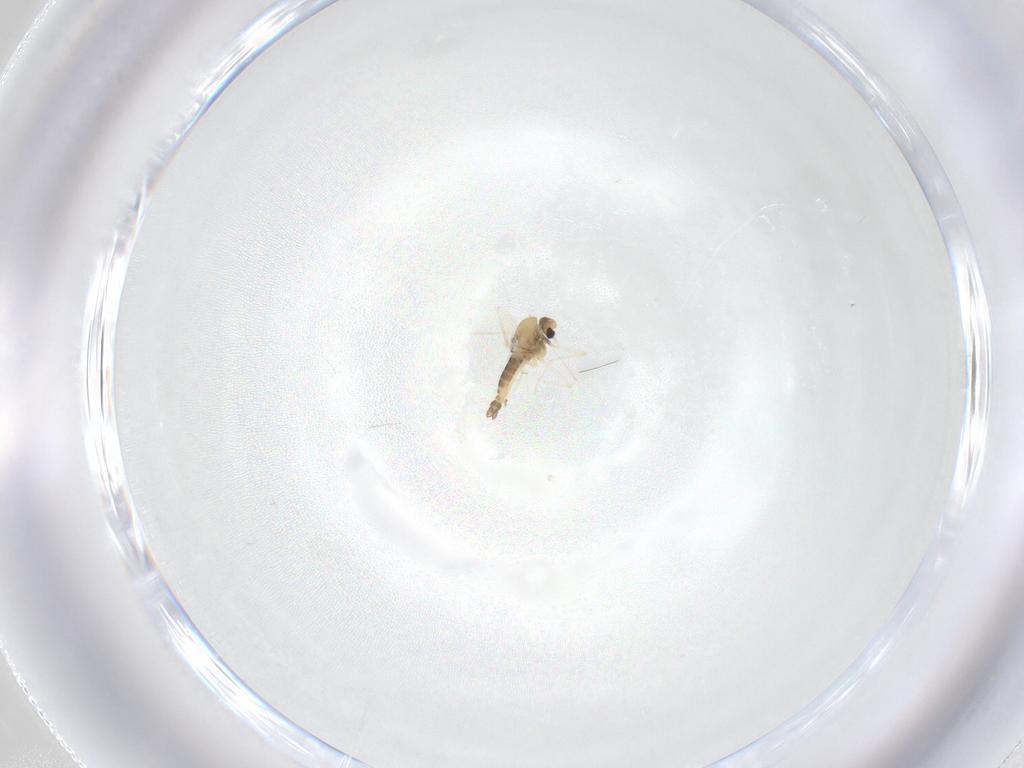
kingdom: Animalia
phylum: Arthropoda
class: Insecta
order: Diptera
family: Chironomidae
